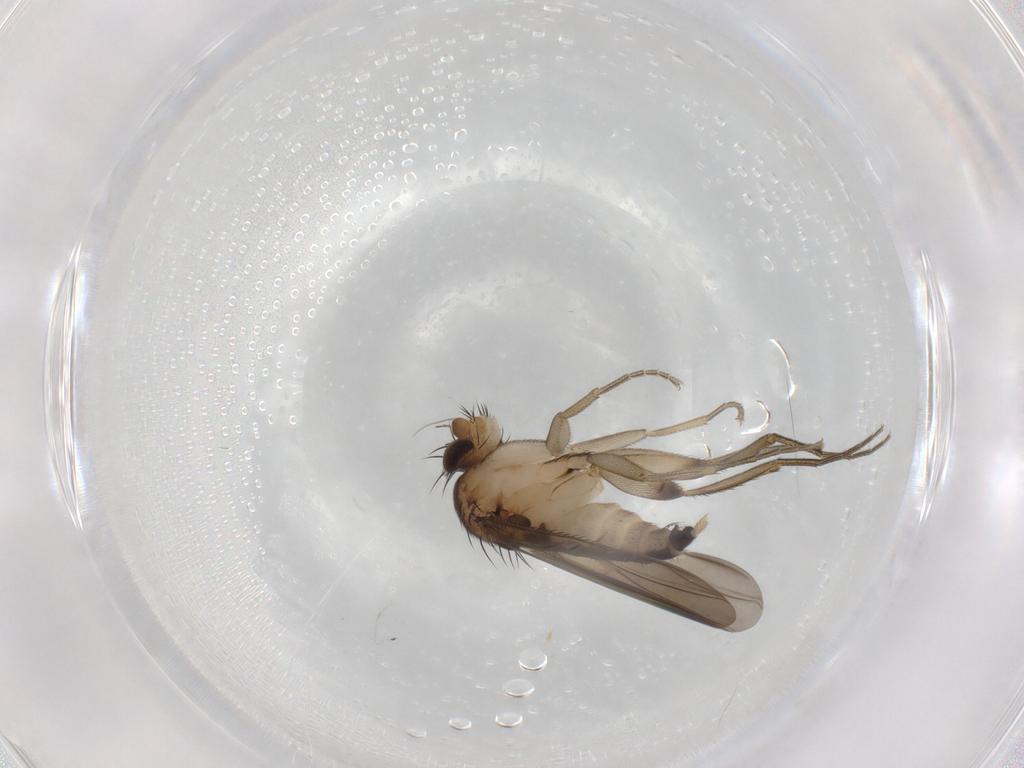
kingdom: Animalia
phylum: Arthropoda
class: Insecta
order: Diptera
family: Phoridae
